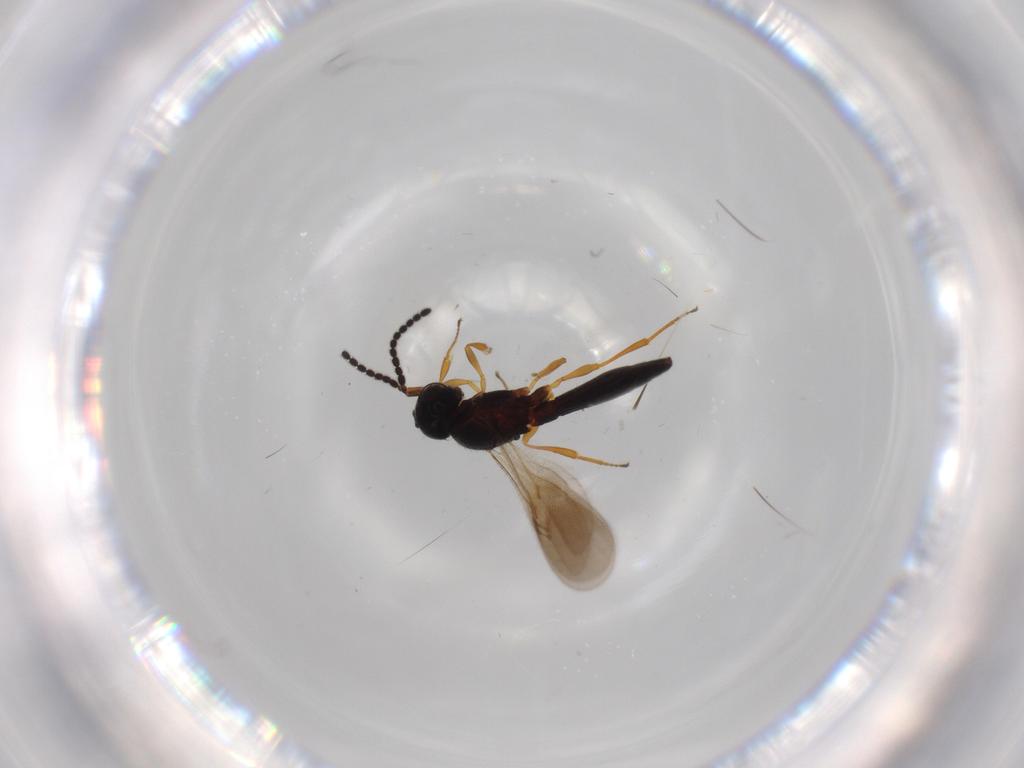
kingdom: Animalia
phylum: Arthropoda
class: Insecta
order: Hymenoptera
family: Scelionidae
